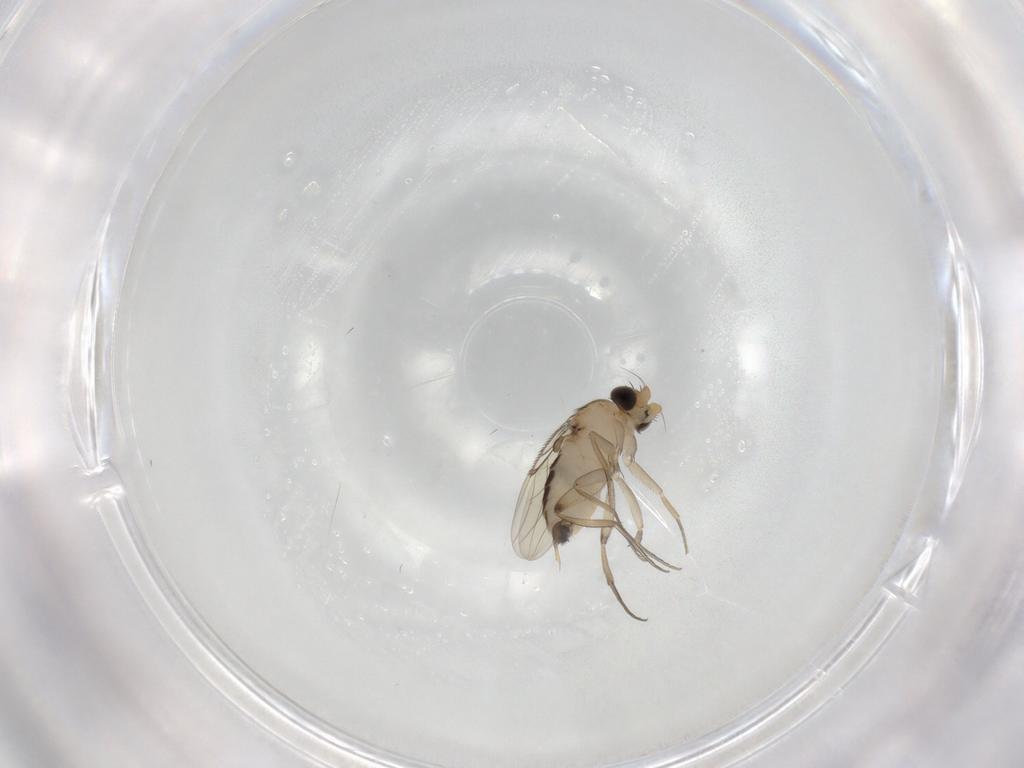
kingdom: Animalia
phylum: Arthropoda
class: Insecta
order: Diptera
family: Phoridae
